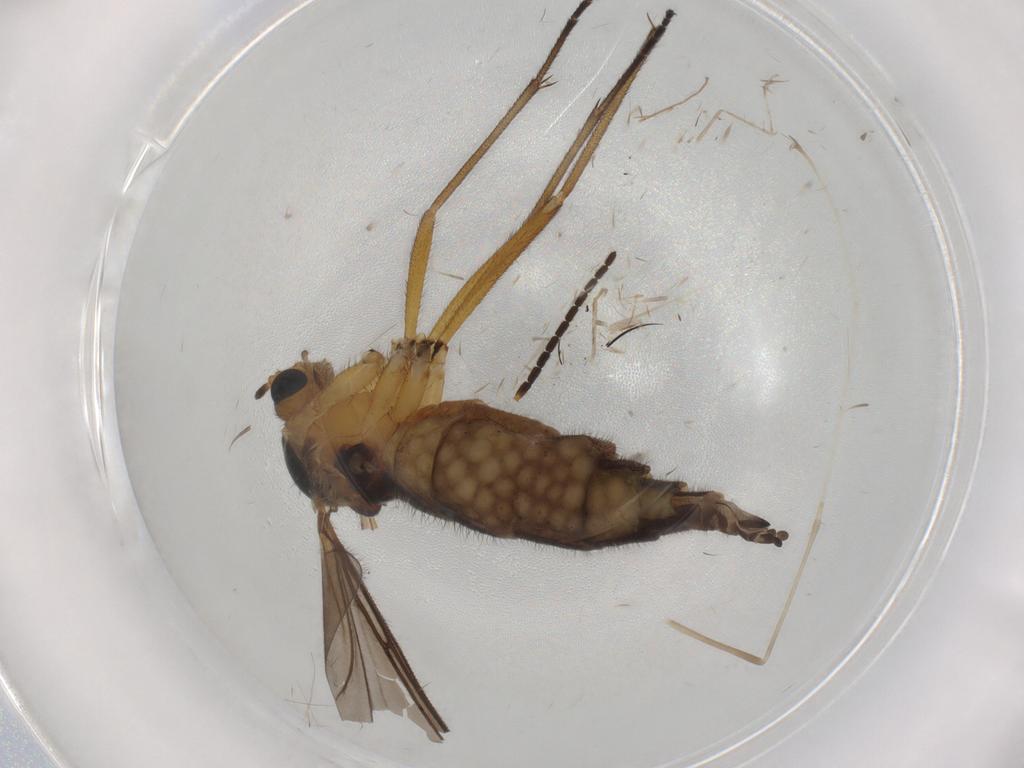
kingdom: Animalia
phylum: Arthropoda
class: Insecta
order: Diptera
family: Sciaridae
